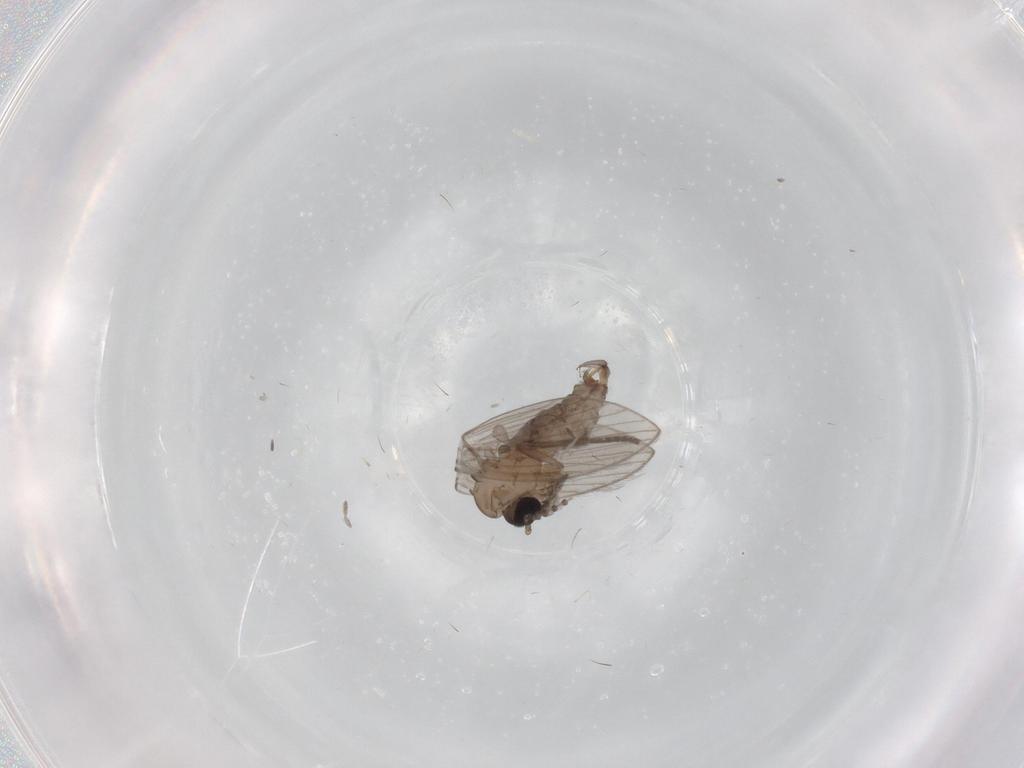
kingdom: Animalia
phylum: Arthropoda
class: Insecta
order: Diptera
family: Psychodidae
